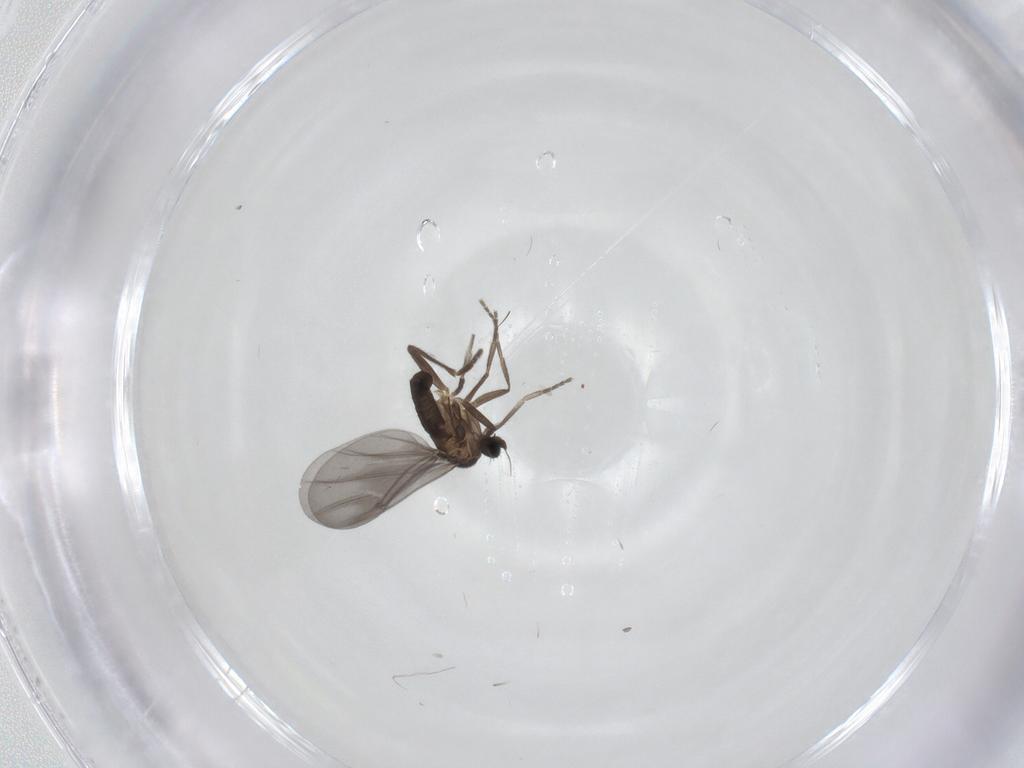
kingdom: Animalia
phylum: Arthropoda
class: Insecta
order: Diptera
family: Phoridae
